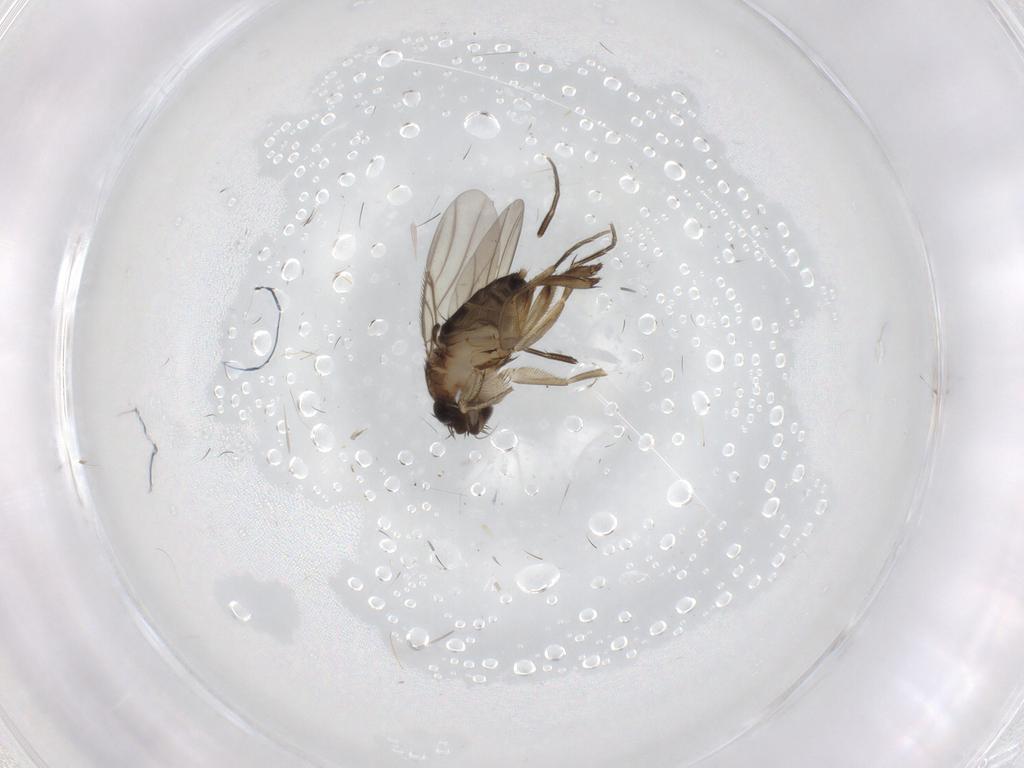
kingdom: Animalia
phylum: Arthropoda
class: Insecta
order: Diptera
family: Phoridae
